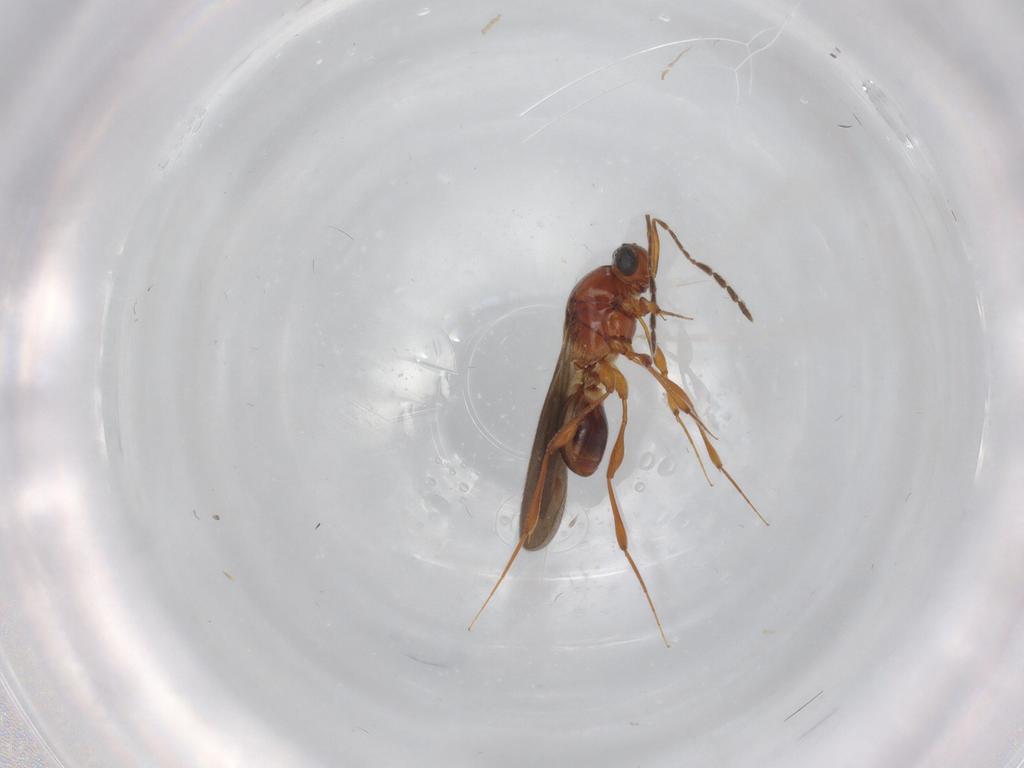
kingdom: Animalia
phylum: Arthropoda
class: Insecta
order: Hymenoptera
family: Platygastridae
